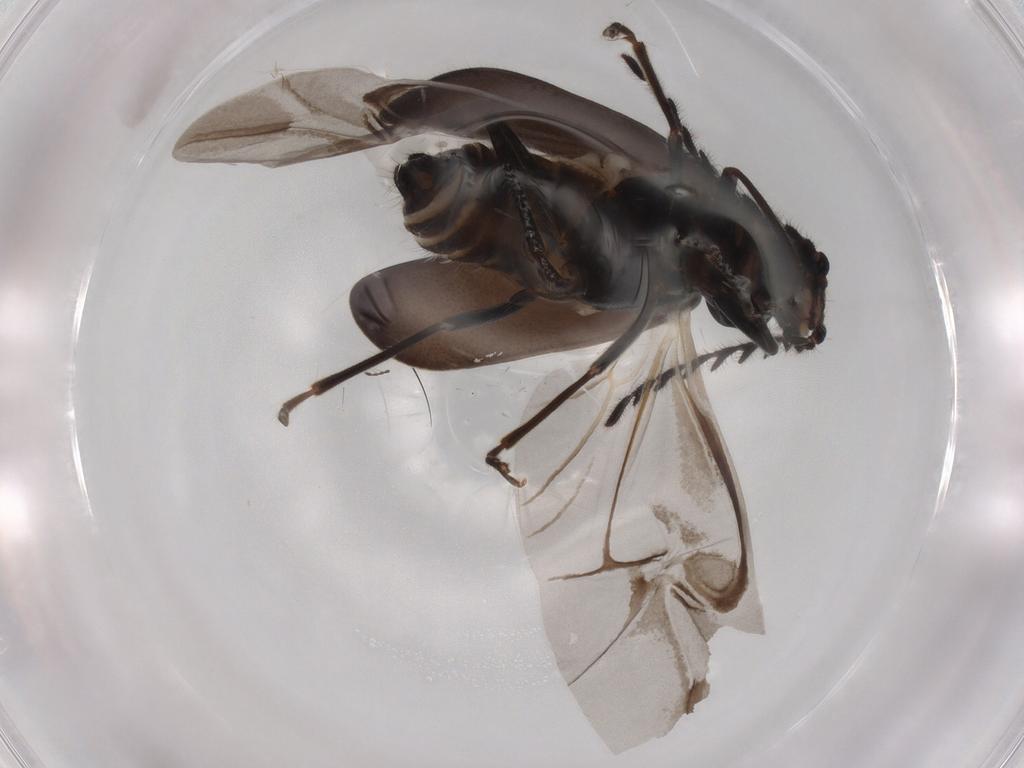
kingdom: Animalia
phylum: Arthropoda
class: Insecta
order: Coleoptera
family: Melyridae
